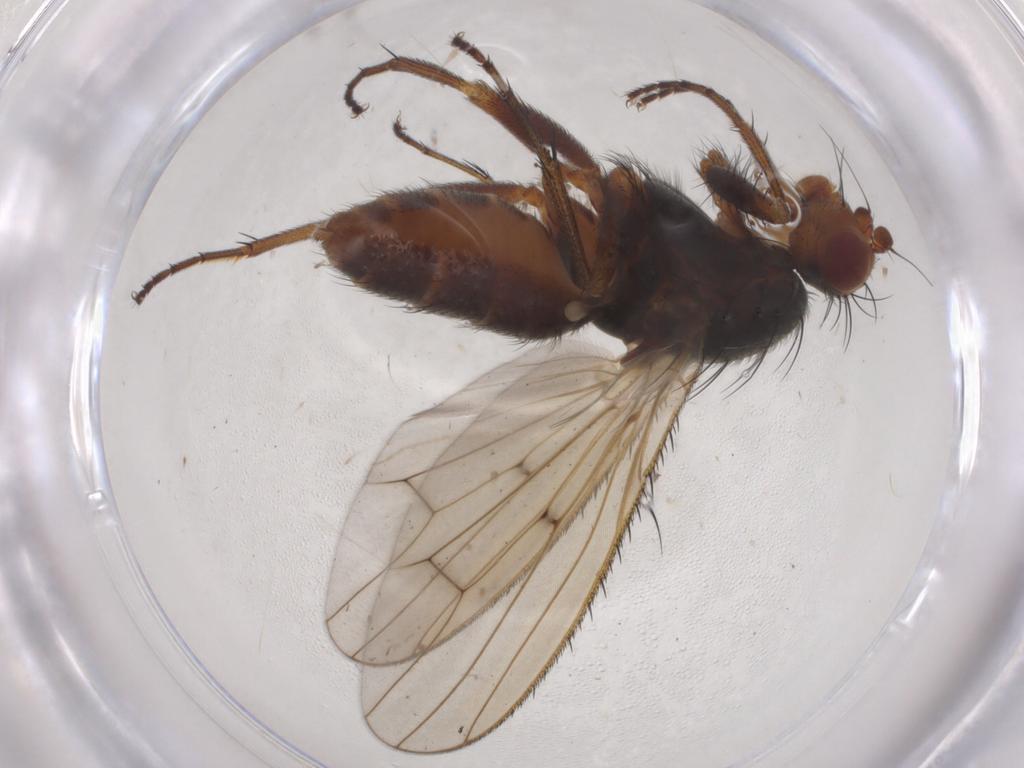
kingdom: Animalia
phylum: Arthropoda
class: Insecta
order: Diptera
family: Heleomyzidae
